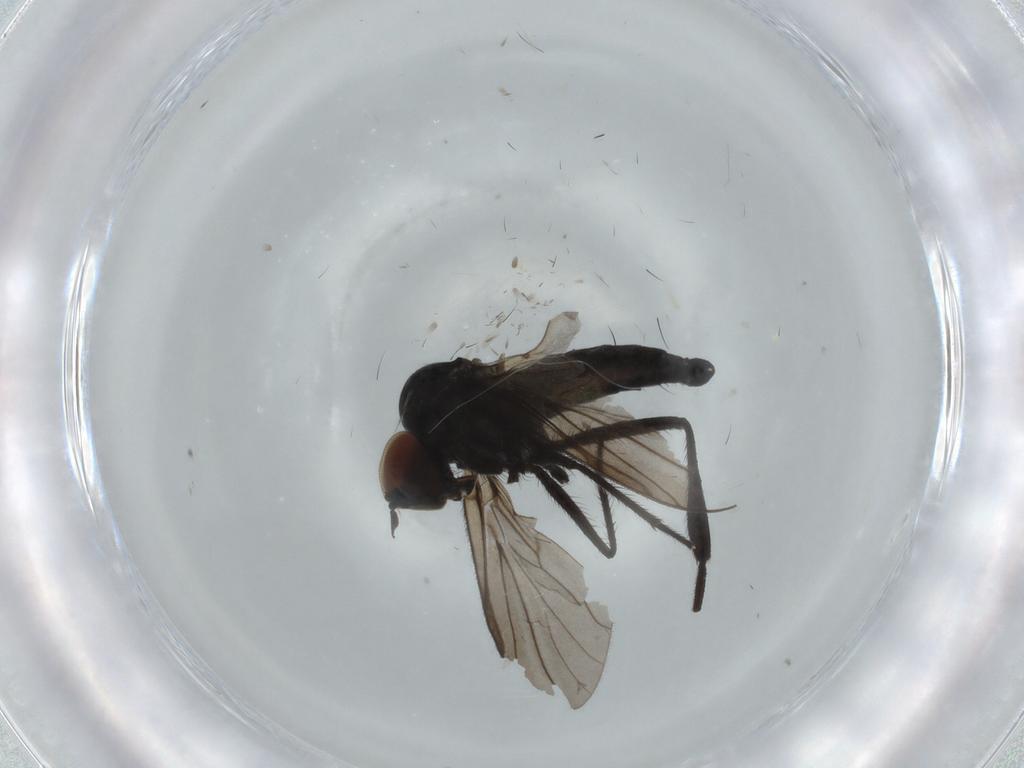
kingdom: Animalia
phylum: Arthropoda
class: Insecta
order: Diptera
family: Hybotidae
